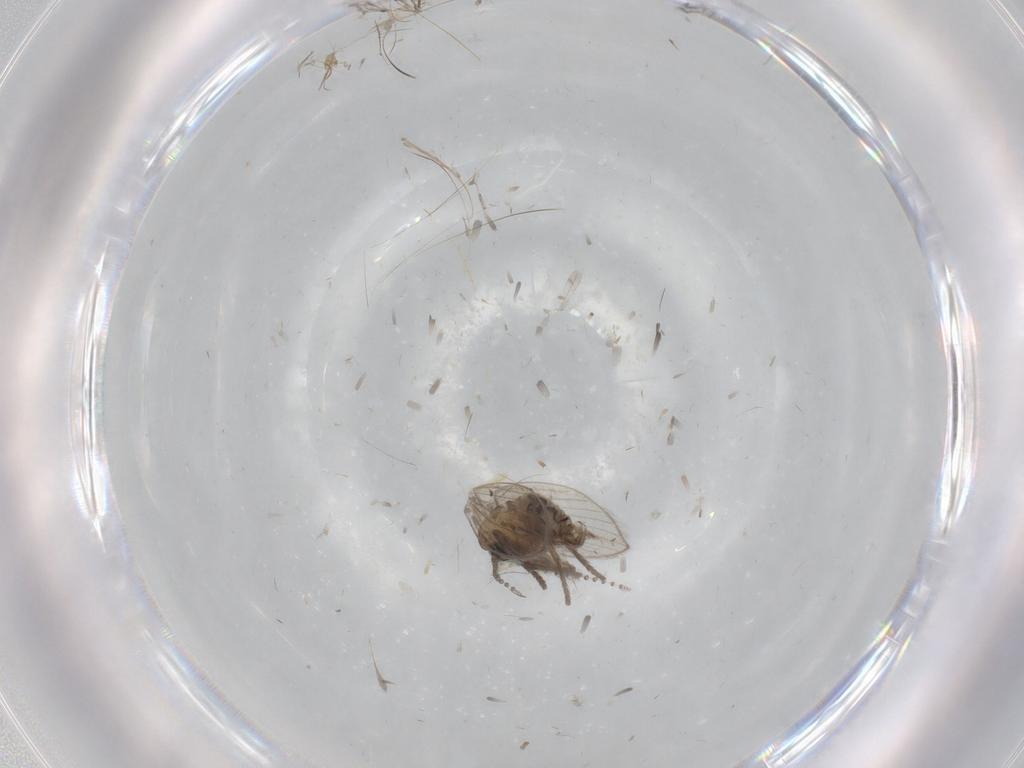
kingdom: Animalia
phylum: Arthropoda
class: Insecta
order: Diptera
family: Psychodidae
